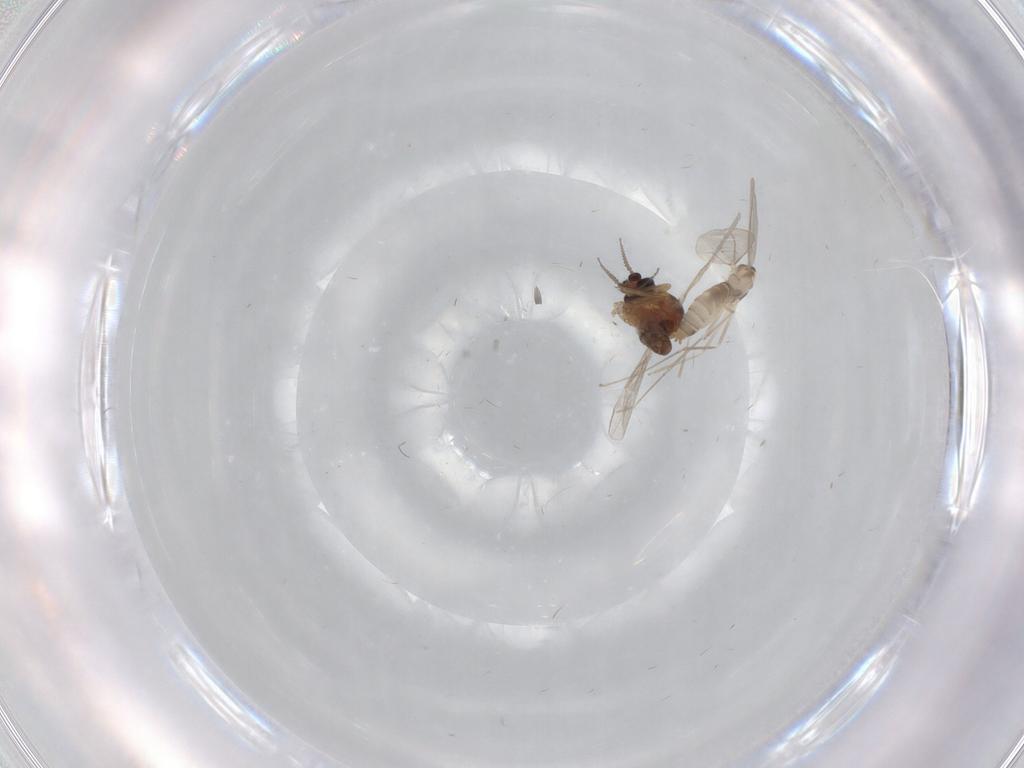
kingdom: Animalia
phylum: Arthropoda
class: Insecta
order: Diptera
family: Ceratopogonidae
